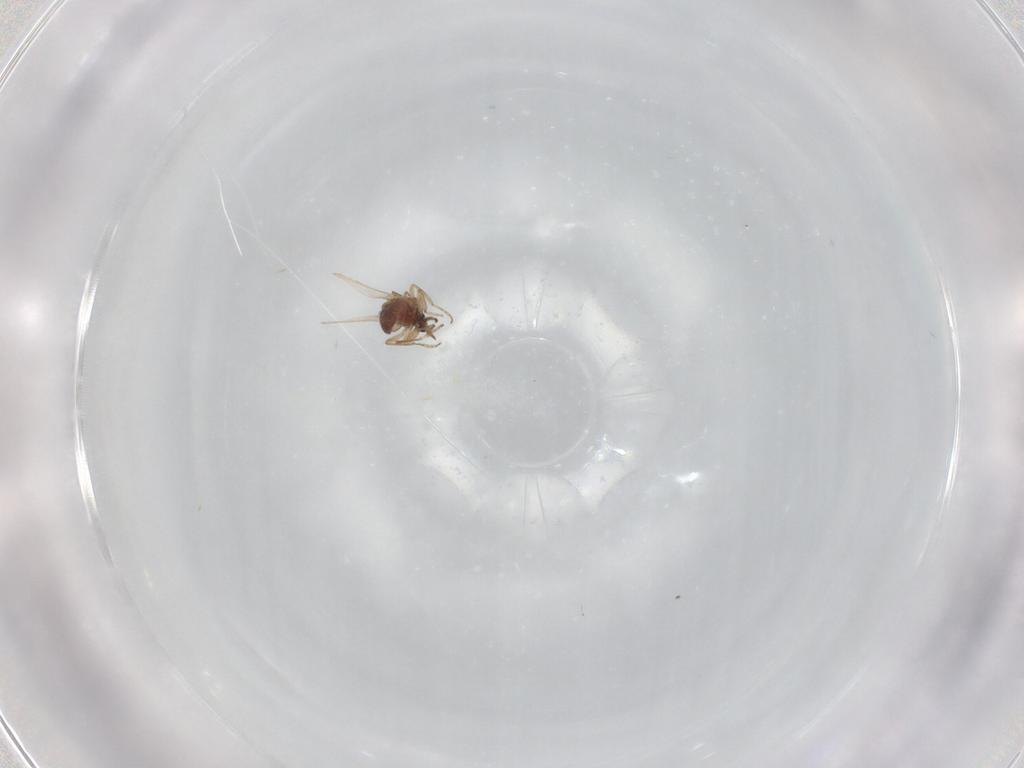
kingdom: Animalia
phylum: Arthropoda
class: Insecta
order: Diptera
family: Ceratopogonidae
